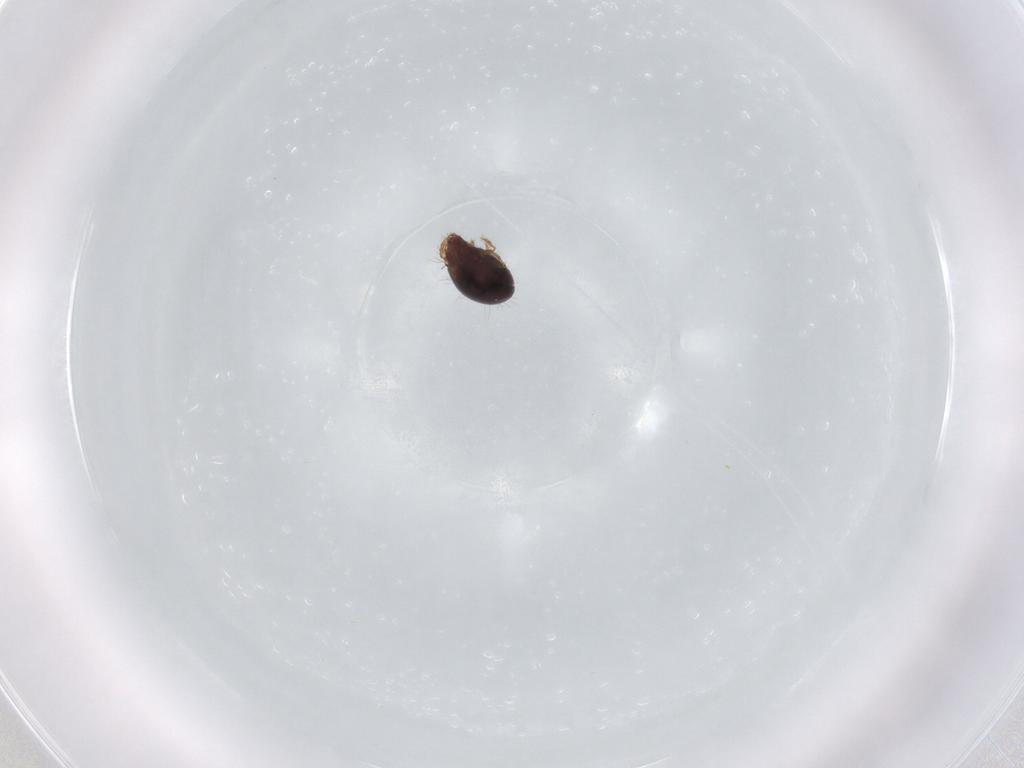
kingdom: Animalia
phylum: Arthropoda
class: Arachnida
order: Sarcoptiformes
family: Humerobatidae
